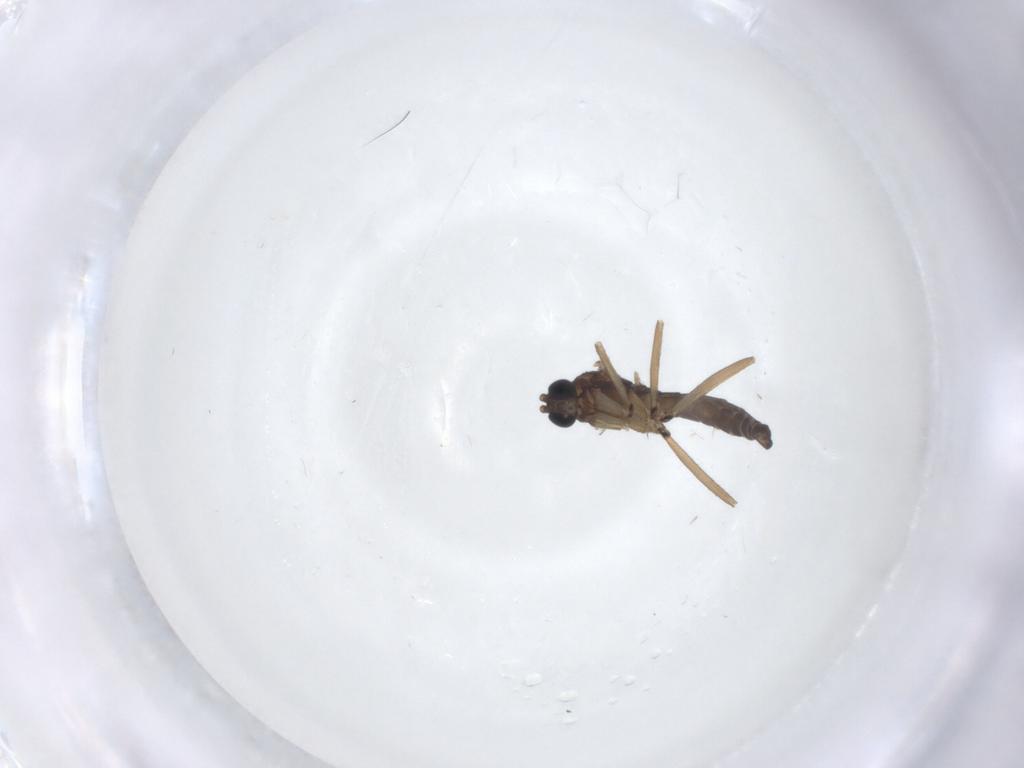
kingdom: Animalia
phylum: Arthropoda
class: Insecta
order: Diptera
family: Sciaridae
